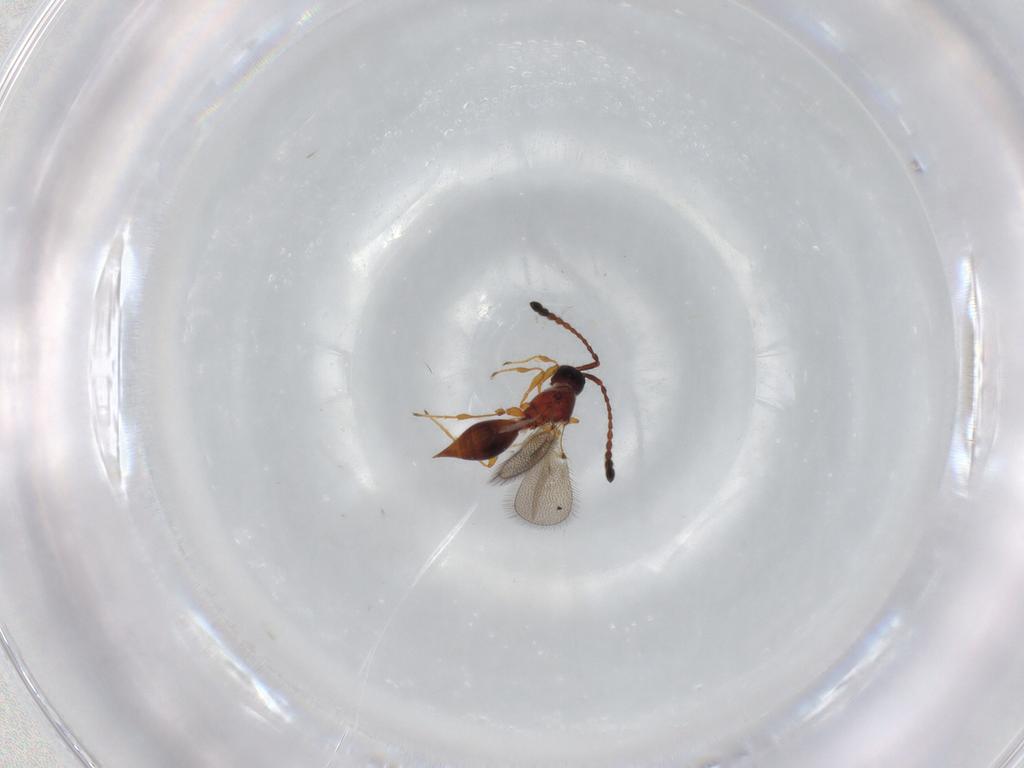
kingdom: Animalia
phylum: Arthropoda
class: Insecta
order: Hymenoptera
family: Diapriidae
